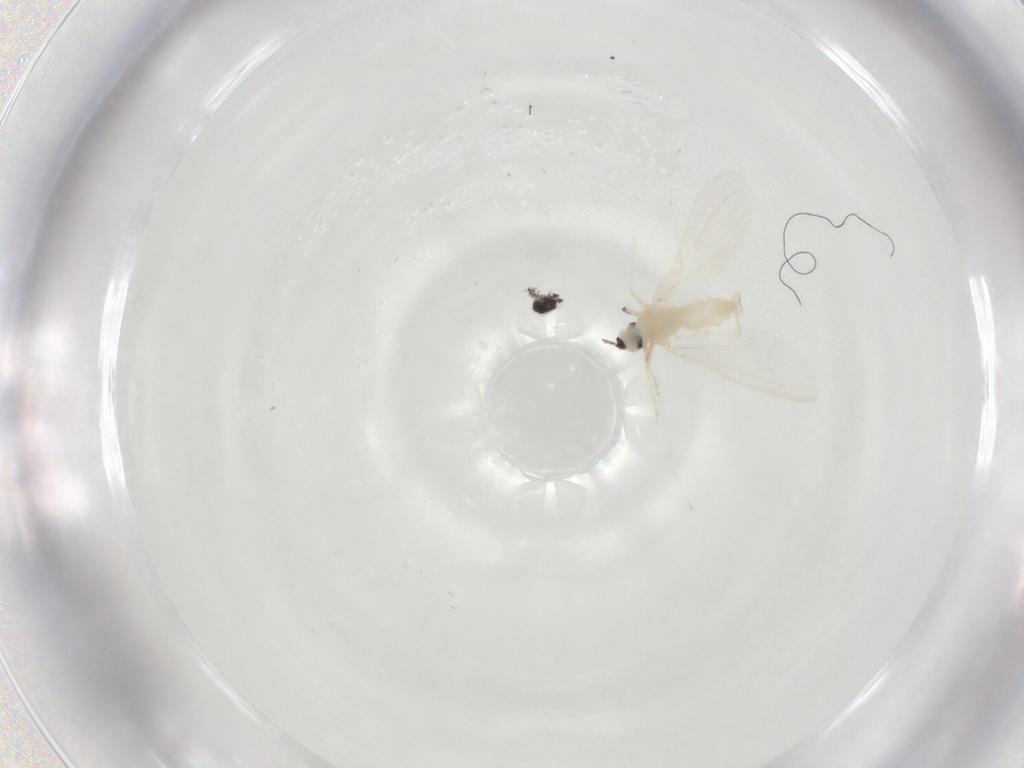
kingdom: Animalia
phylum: Arthropoda
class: Insecta
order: Diptera
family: Cecidomyiidae
